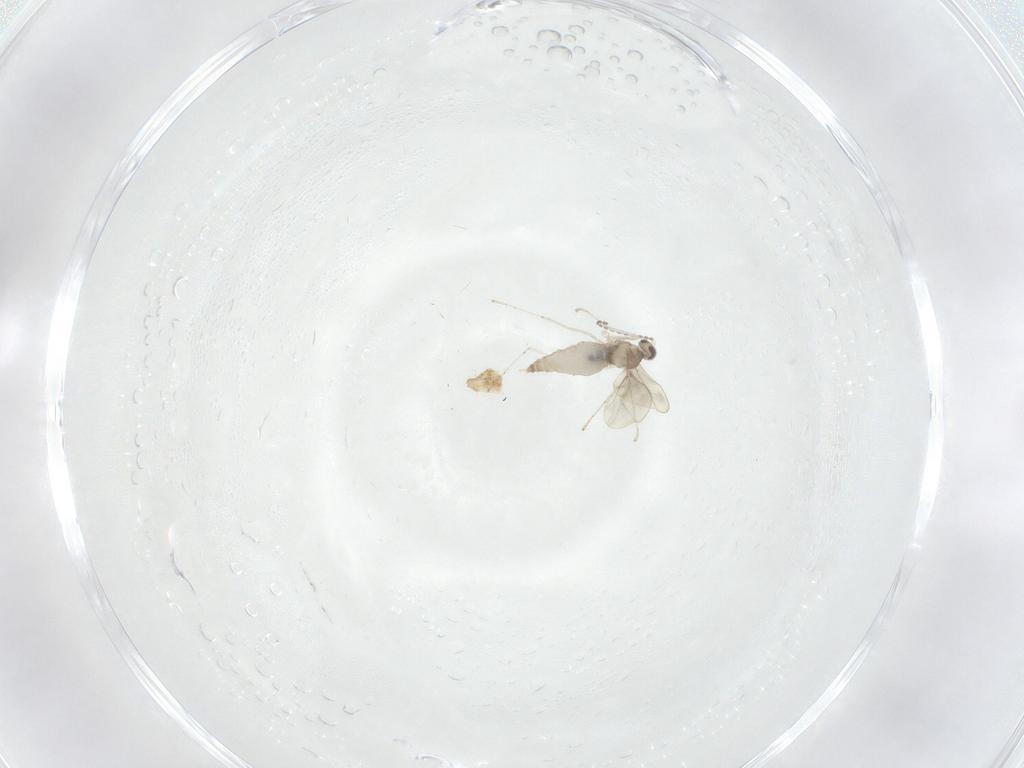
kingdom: Animalia
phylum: Arthropoda
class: Insecta
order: Diptera
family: Cecidomyiidae
